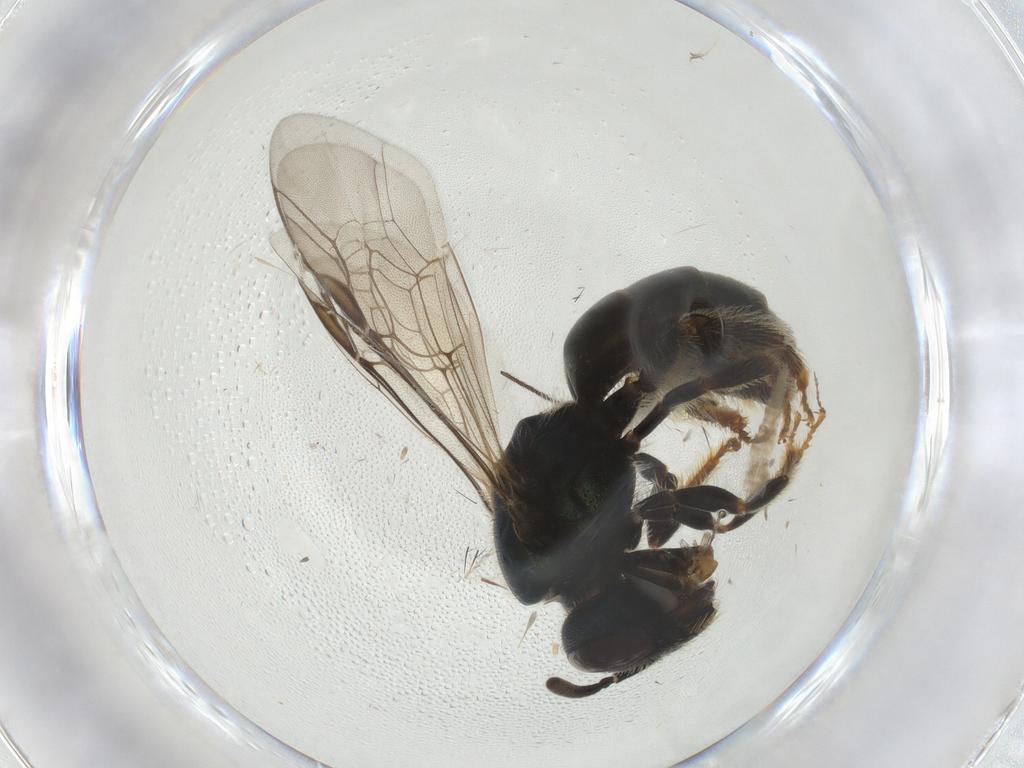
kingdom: Animalia
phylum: Arthropoda
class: Insecta
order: Hymenoptera
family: Halictidae
